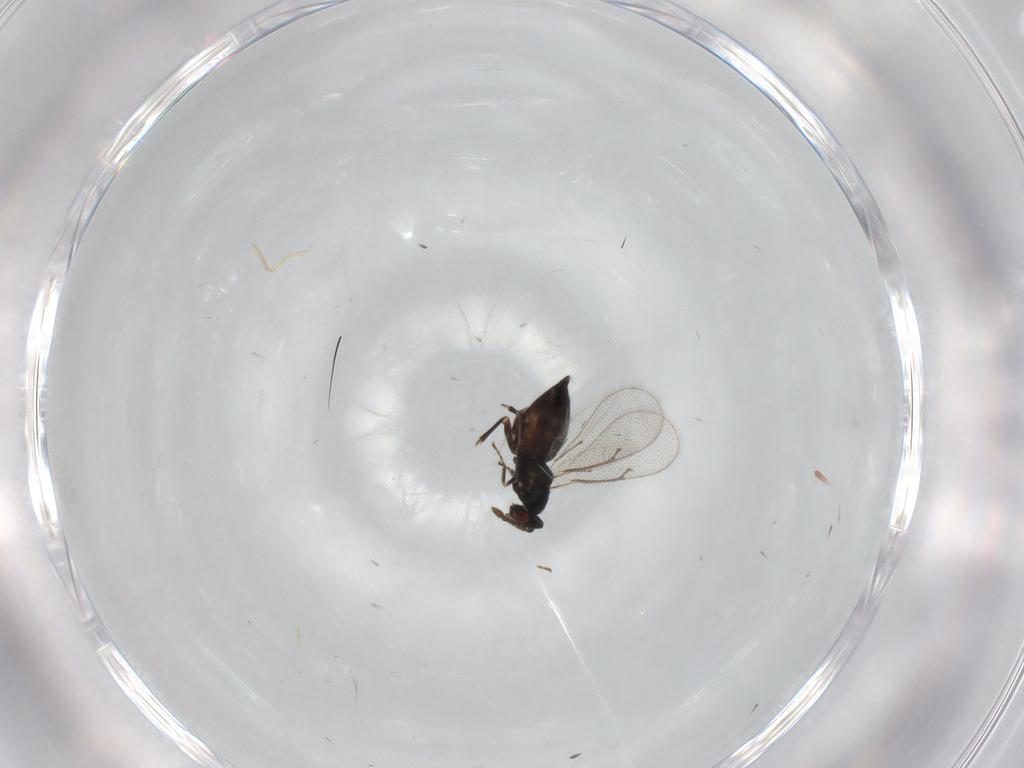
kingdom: Animalia
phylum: Arthropoda
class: Insecta
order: Hymenoptera
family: Eulophidae
